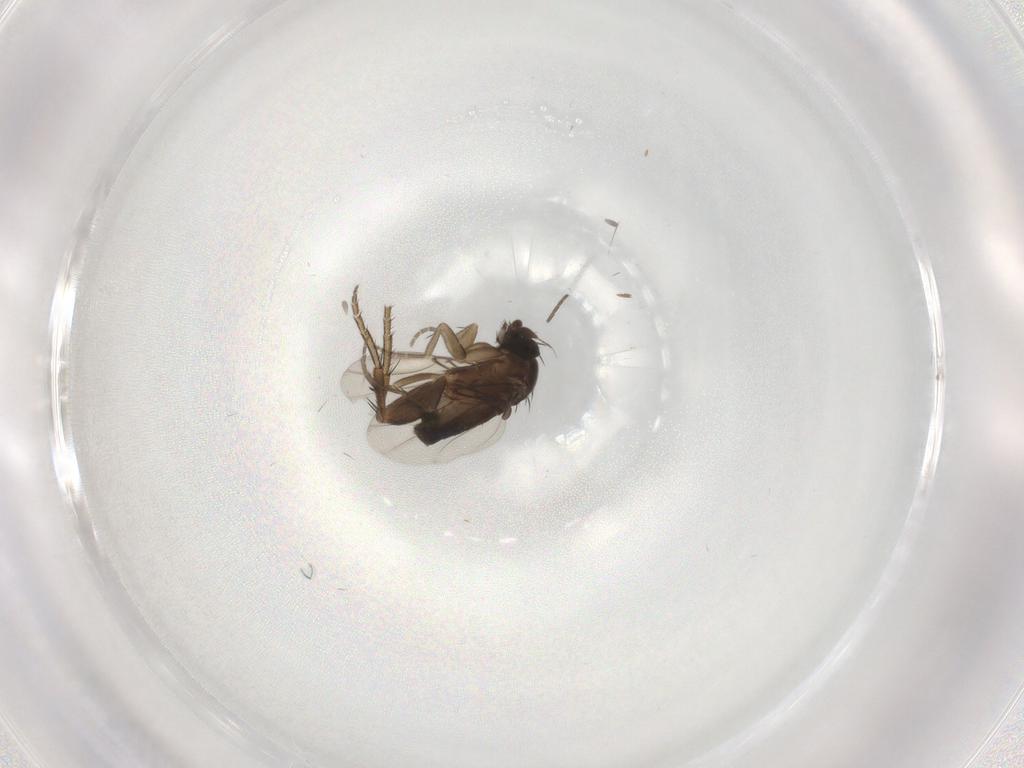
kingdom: Animalia
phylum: Arthropoda
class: Insecta
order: Diptera
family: Phoridae
